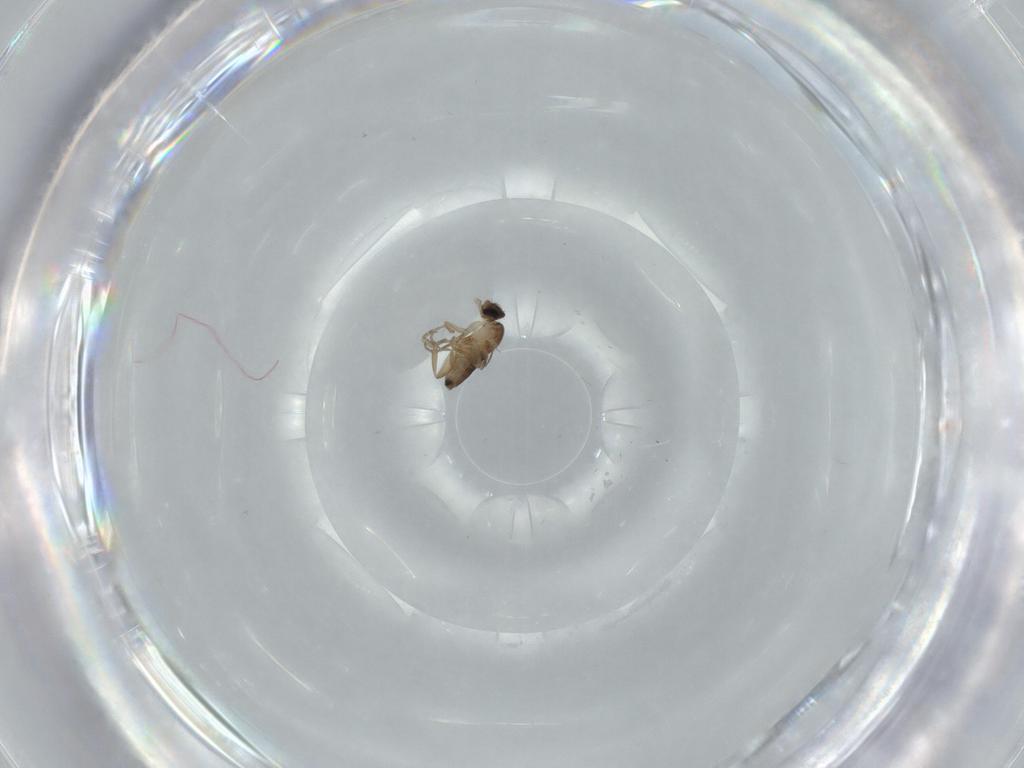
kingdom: Animalia
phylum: Arthropoda
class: Insecta
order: Diptera
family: Phoridae
